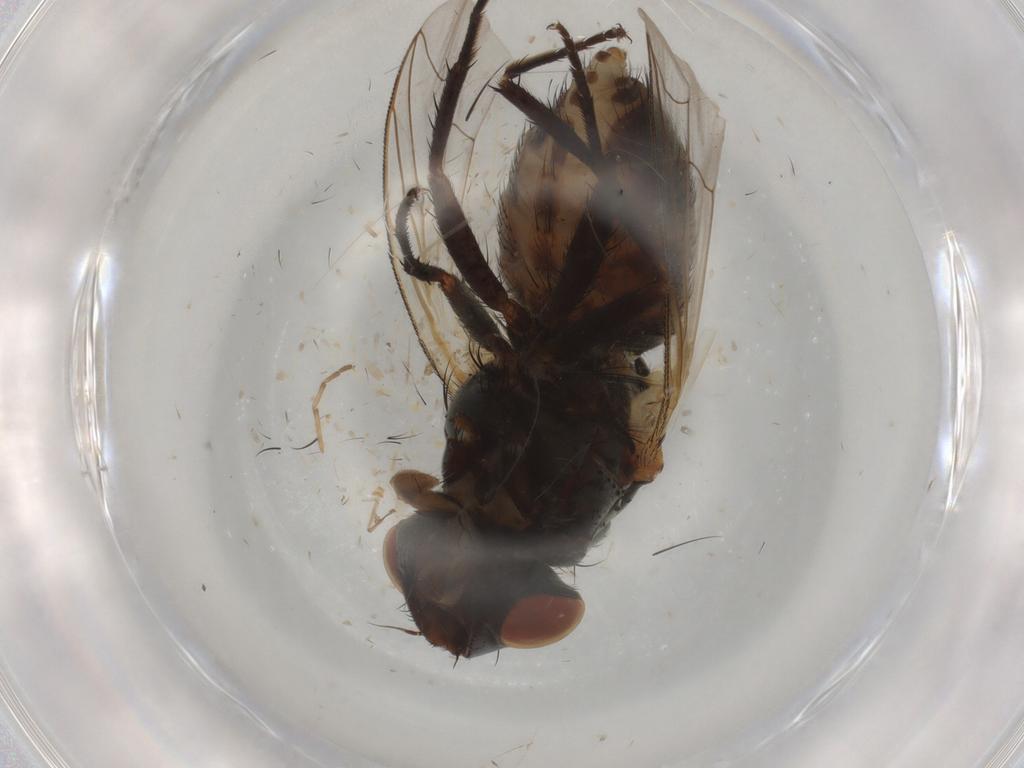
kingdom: Animalia
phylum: Arthropoda
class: Insecta
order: Diptera
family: Sarcophagidae
